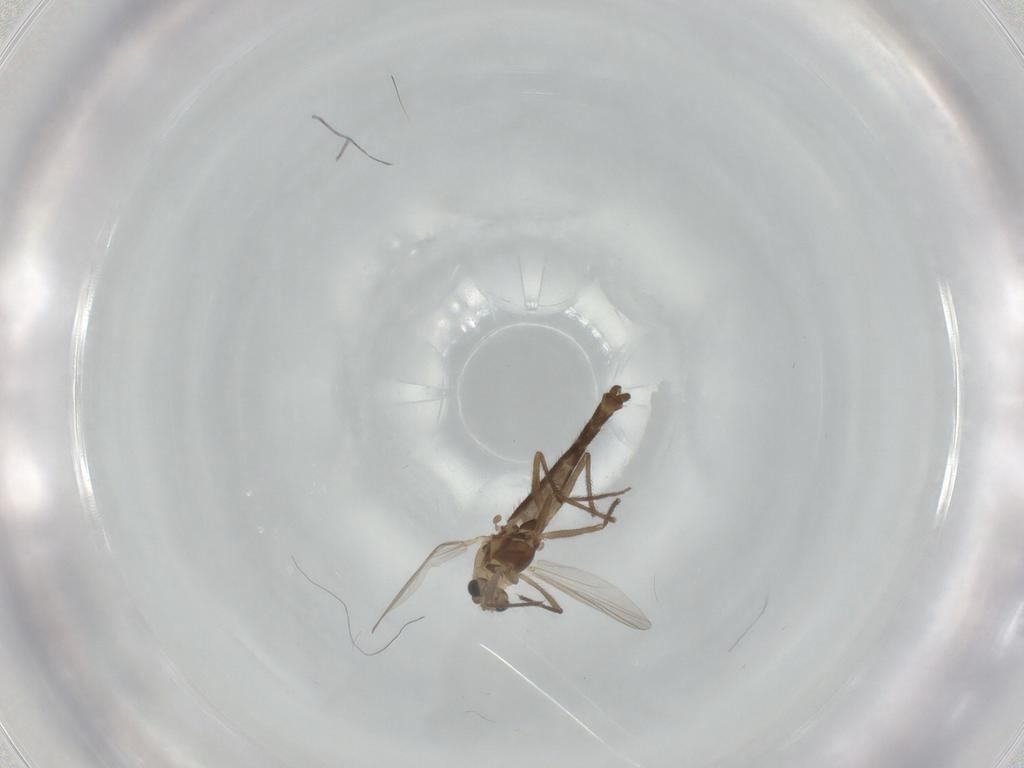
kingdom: Animalia
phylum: Arthropoda
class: Insecta
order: Diptera
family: Chironomidae
